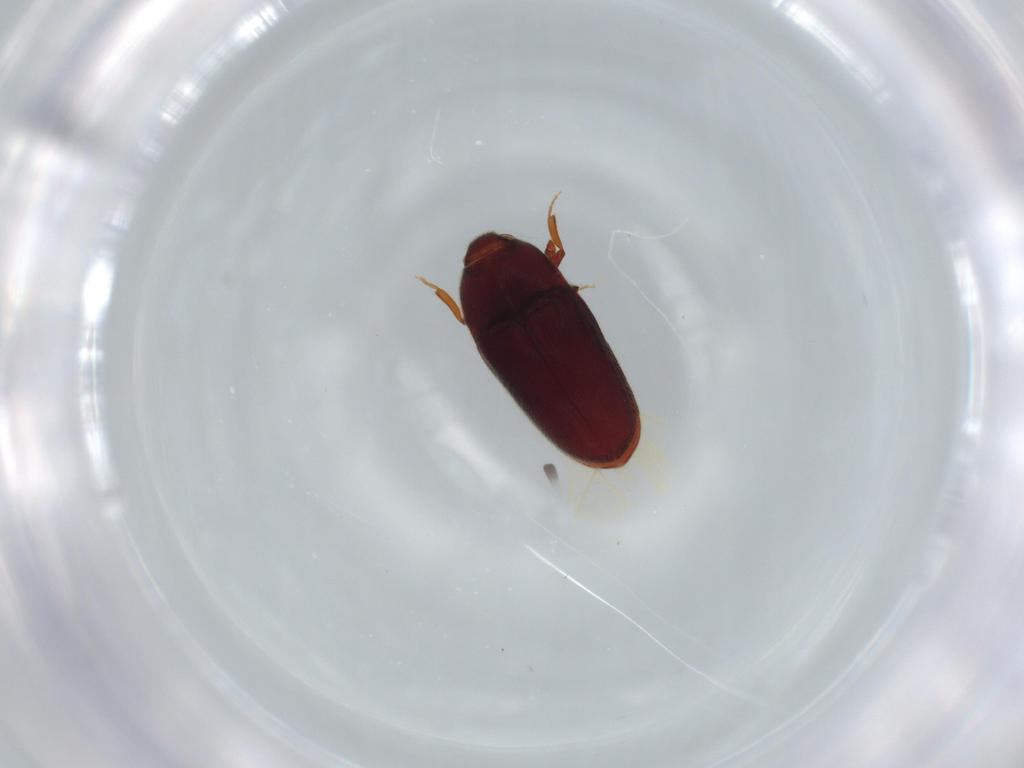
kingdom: Animalia
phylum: Arthropoda
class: Insecta
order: Coleoptera
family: Throscidae
